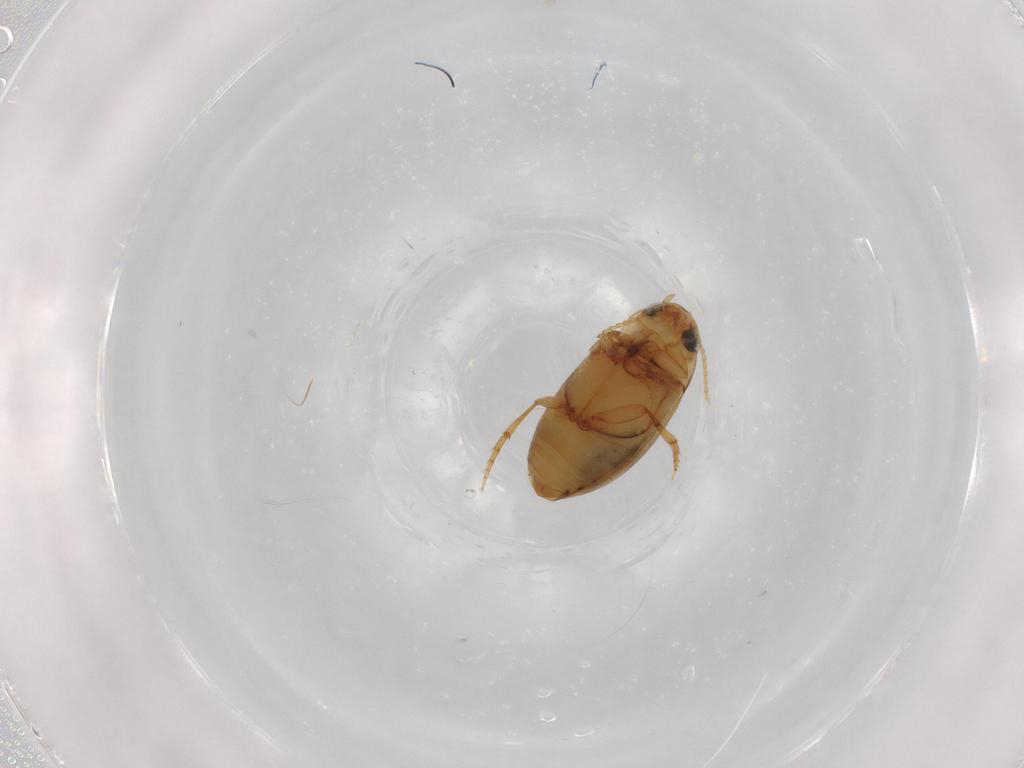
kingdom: Animalia
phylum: Arthropoda
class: Insecta
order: Coleoptera
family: Dytiscidae
